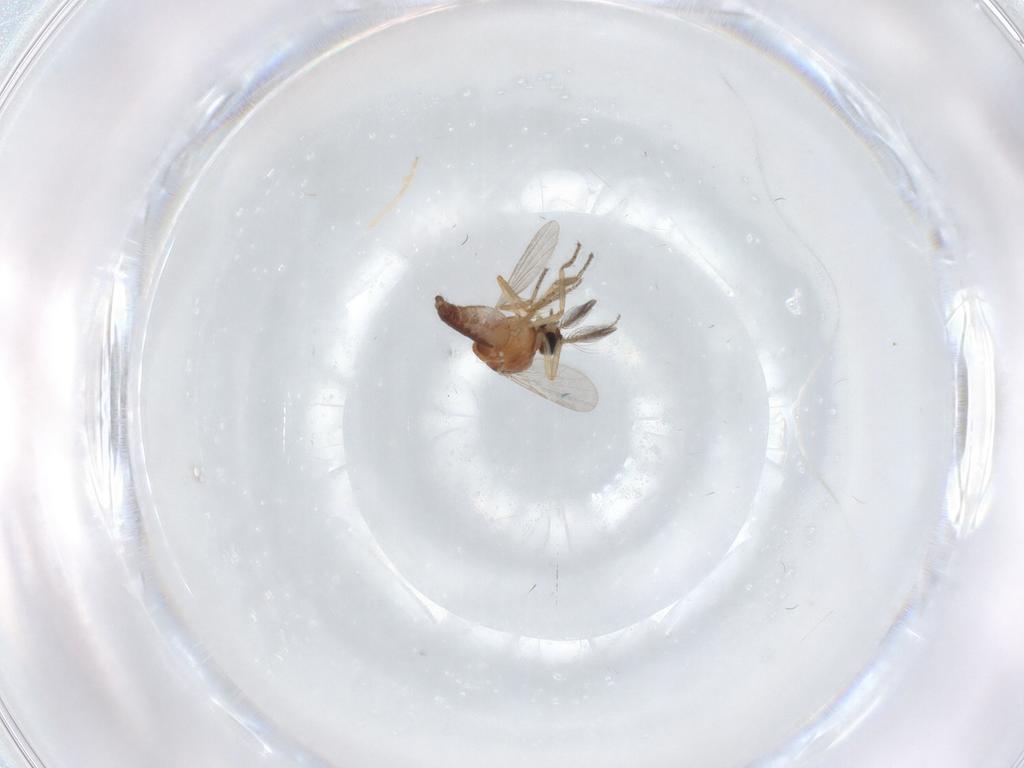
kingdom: Animalia
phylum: Arthropoda
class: Insecta
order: Diptera
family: Ceratopogonidae
